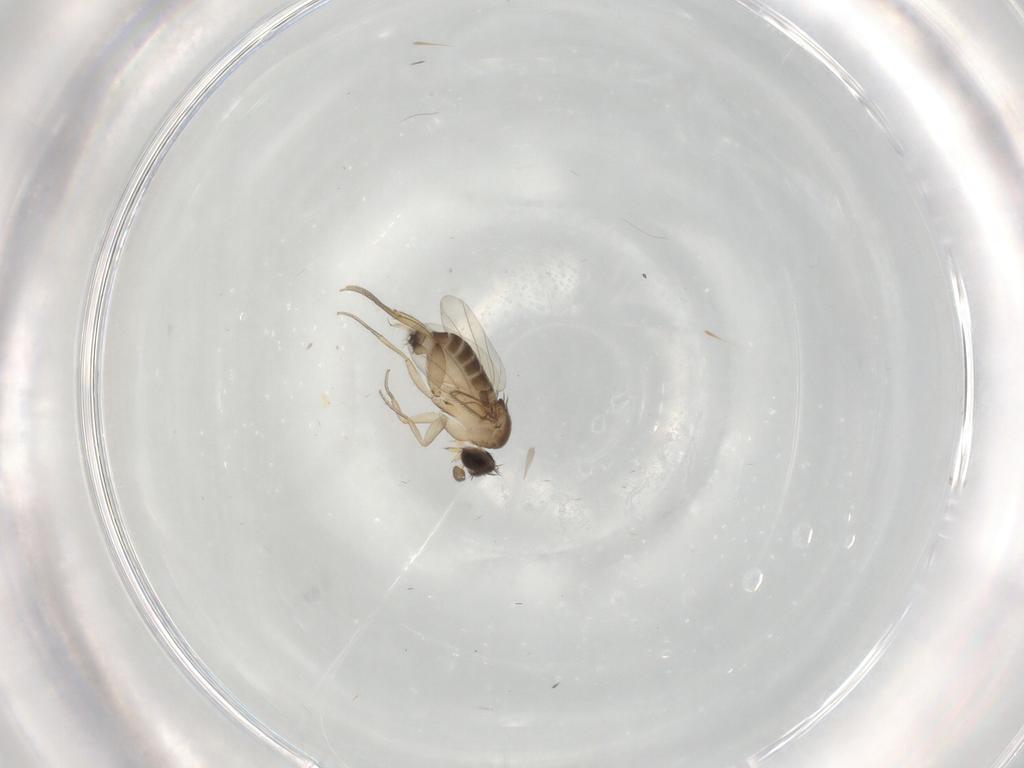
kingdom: Animalia
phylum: Arthropoda
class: Insecta
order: Diptera
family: Phoridae
